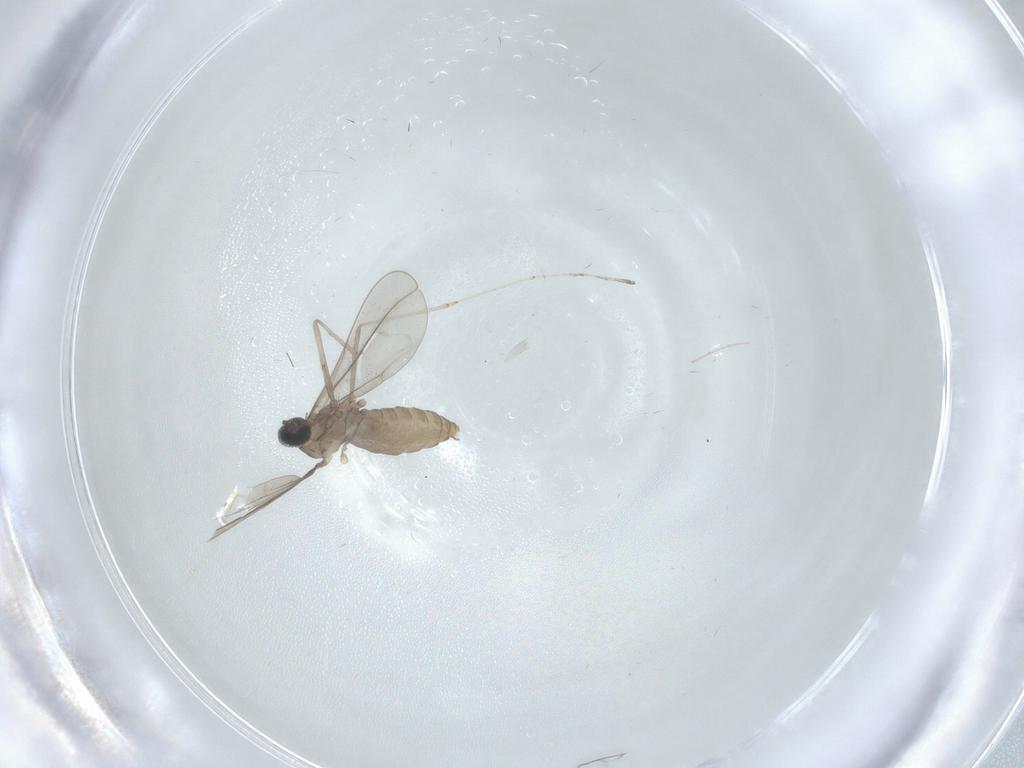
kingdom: Animalia
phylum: Arthropoda
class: Insecta
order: Diptera
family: Cecidomyiidae
